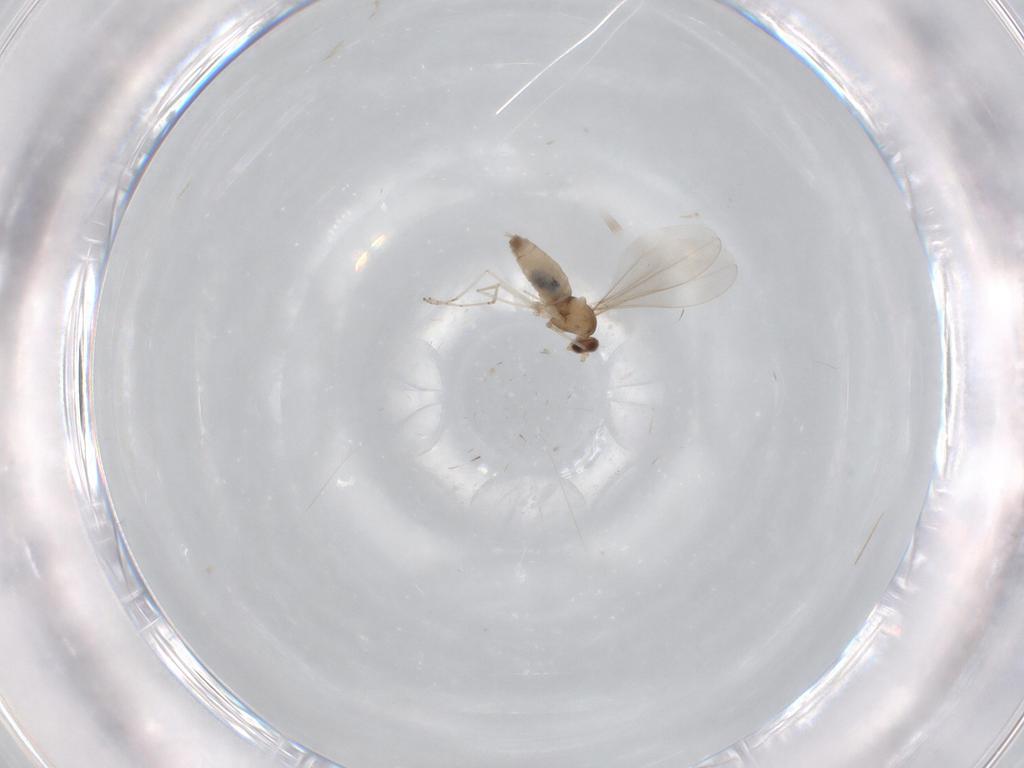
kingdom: Animalia
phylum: Arthropoda
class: Insecta
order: Diptera
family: Cecidomyiidae
